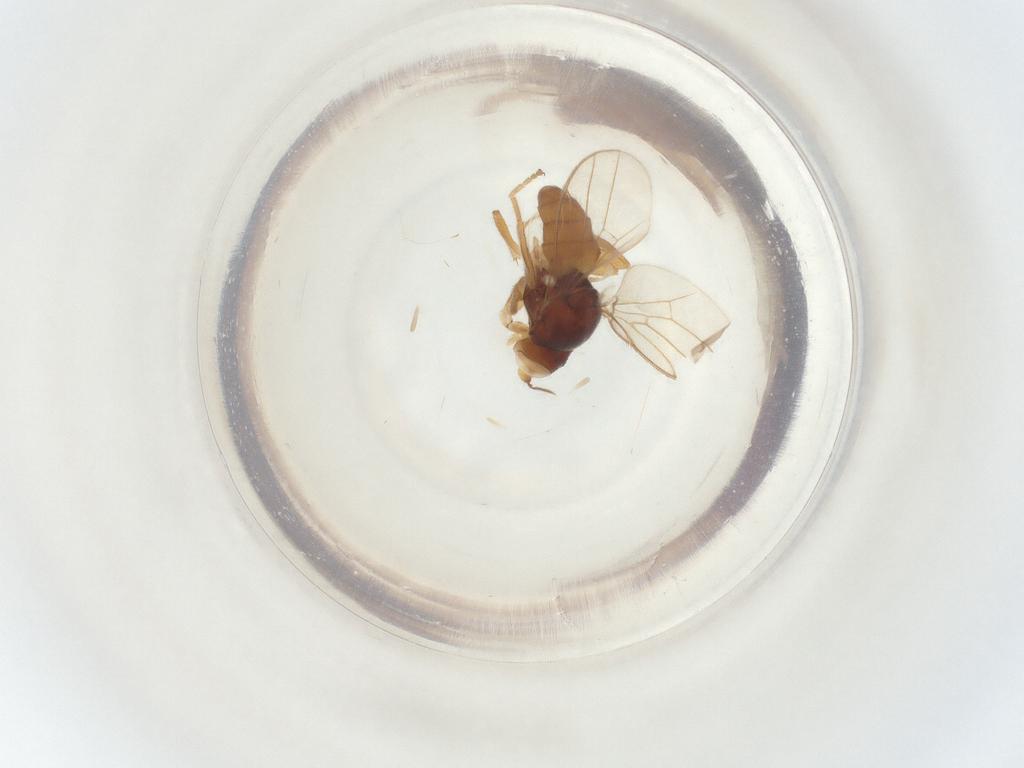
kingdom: Animalia
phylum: Arthropoda
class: Insecta
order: Diptera
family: Chloropidae
